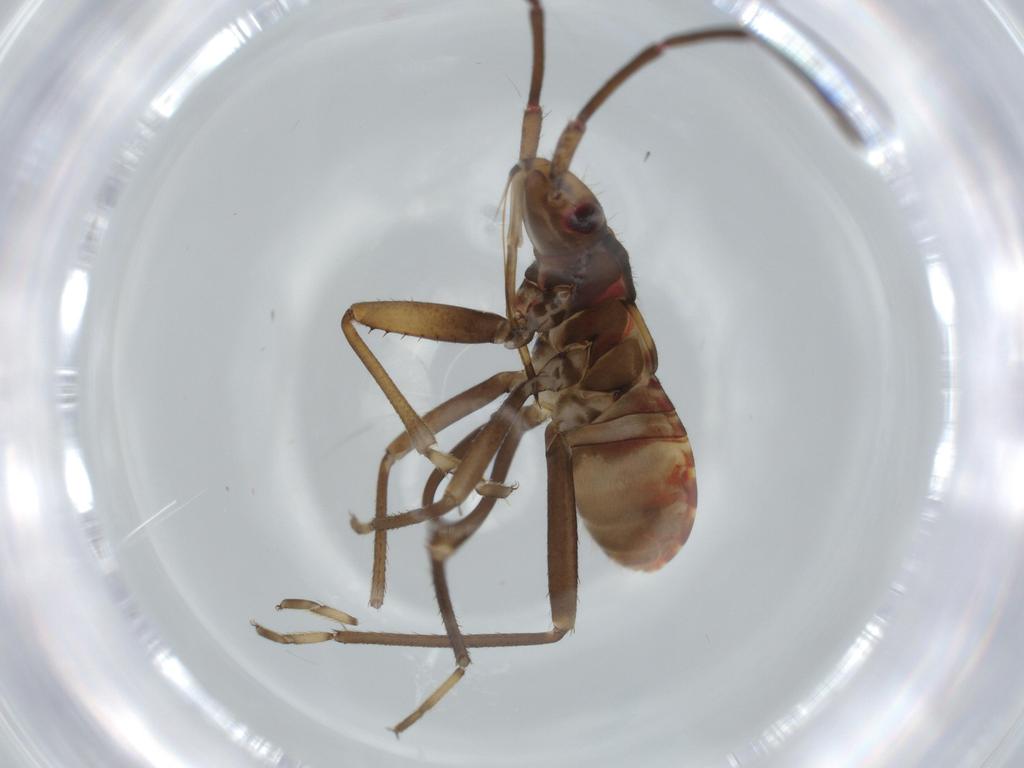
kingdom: Animalia
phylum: Arthropoda
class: Insecta
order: Hemiptera
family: Rhyparochromidae
